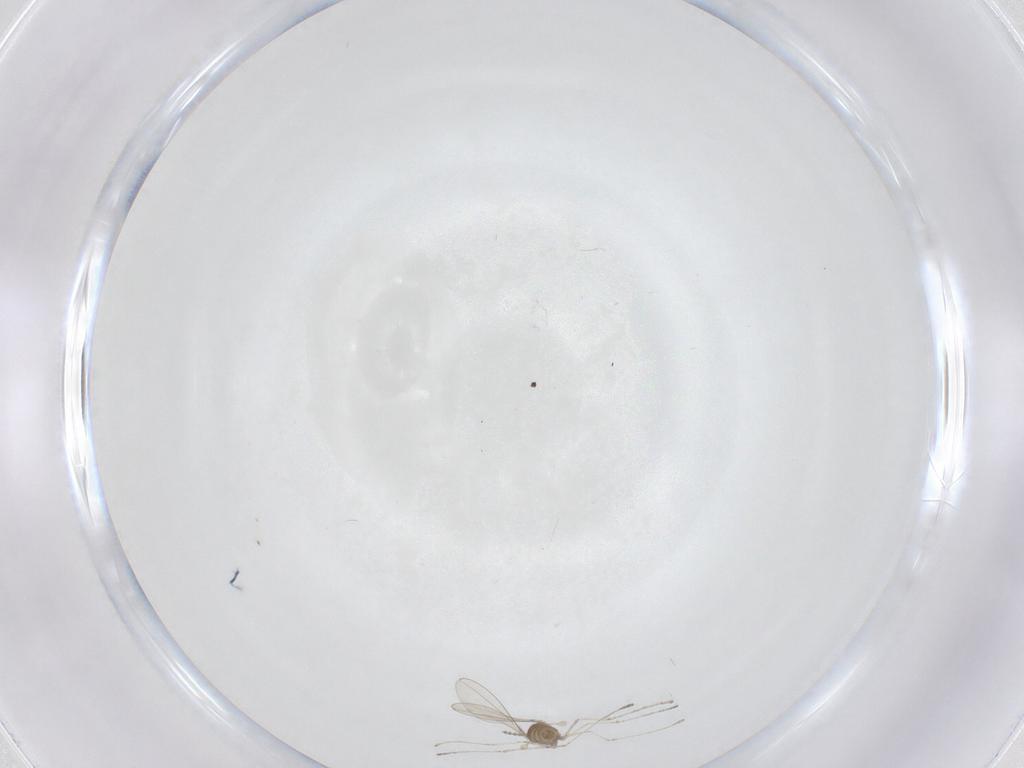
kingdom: Animalia
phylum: Arthropoda
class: Insecta
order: Diptera
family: Cecidomyiidae
